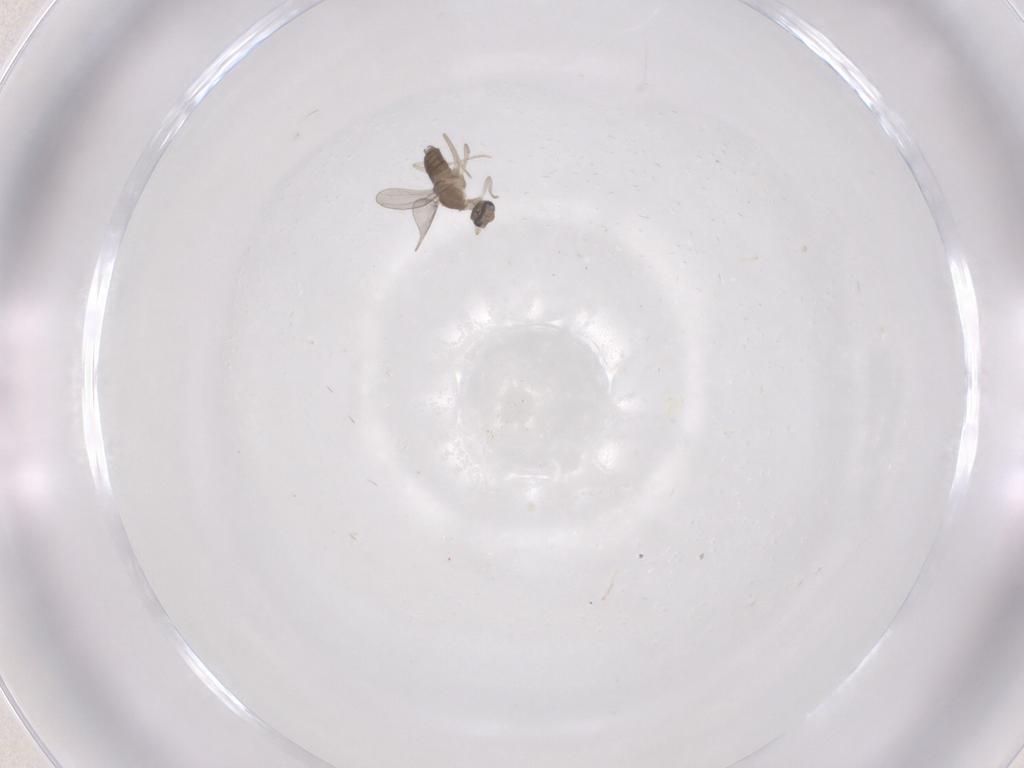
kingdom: Animalia
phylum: Arthropoda
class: Insecta
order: Diptera
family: Cecidomyiidae
